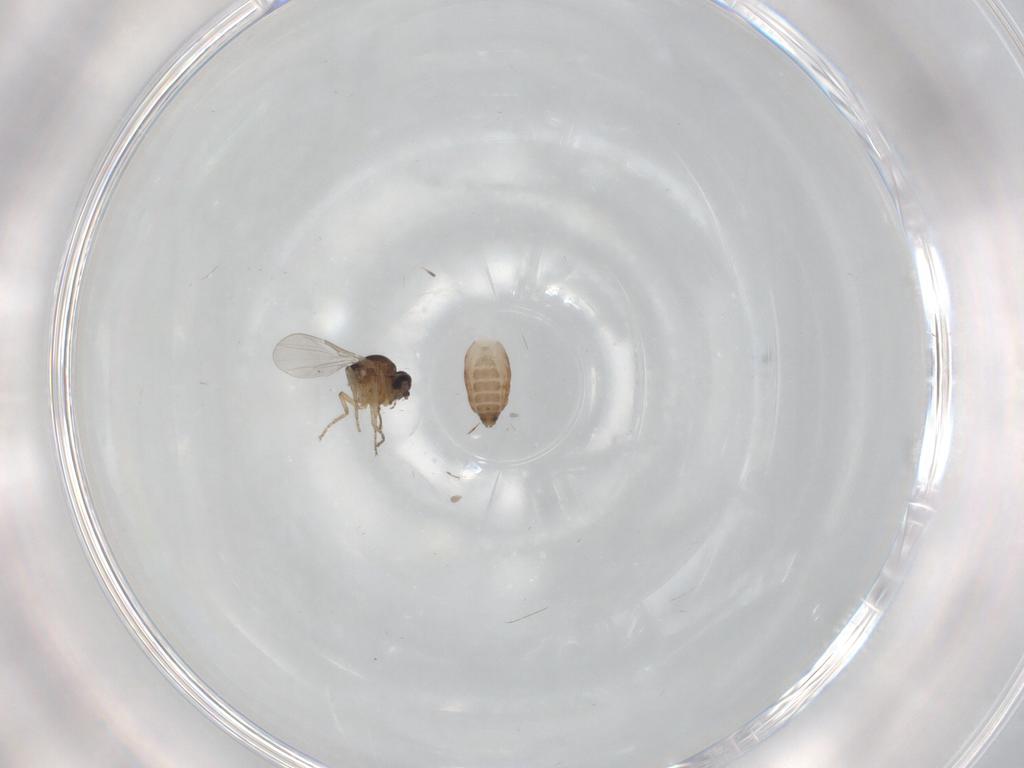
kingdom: Animalia
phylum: Arthropoda
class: Insecta
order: Diptera
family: Ceratopogonidae
